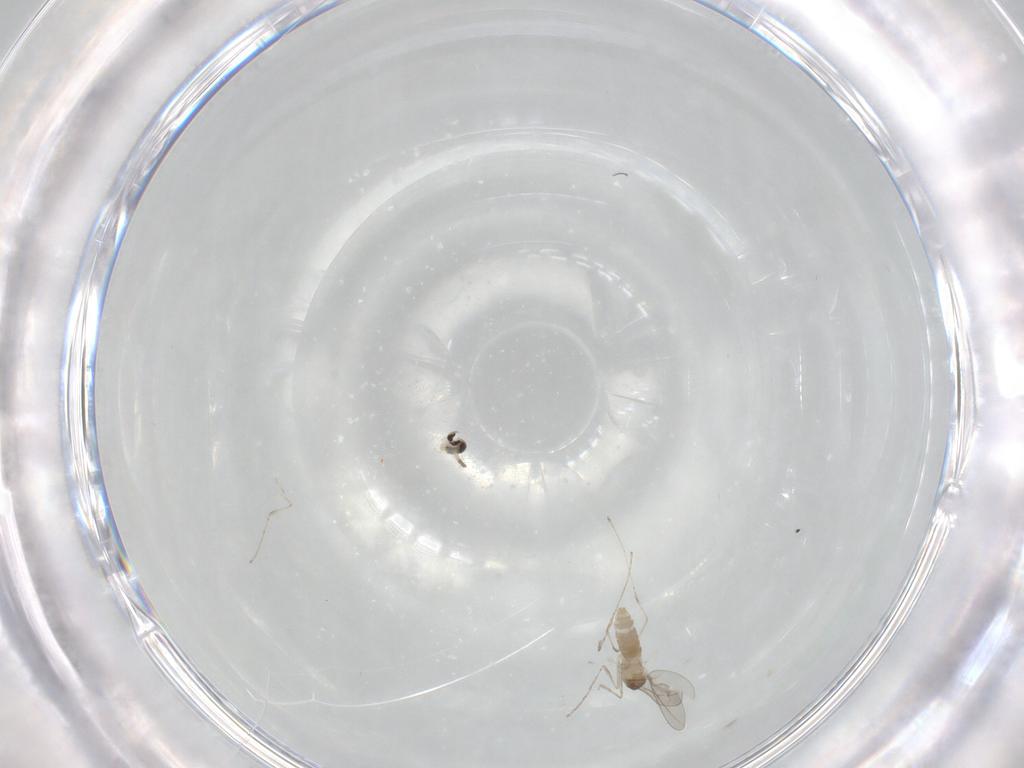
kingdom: Animalia
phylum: Arthropoda
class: Insecta
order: Diptera
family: Cecidomyiidae
